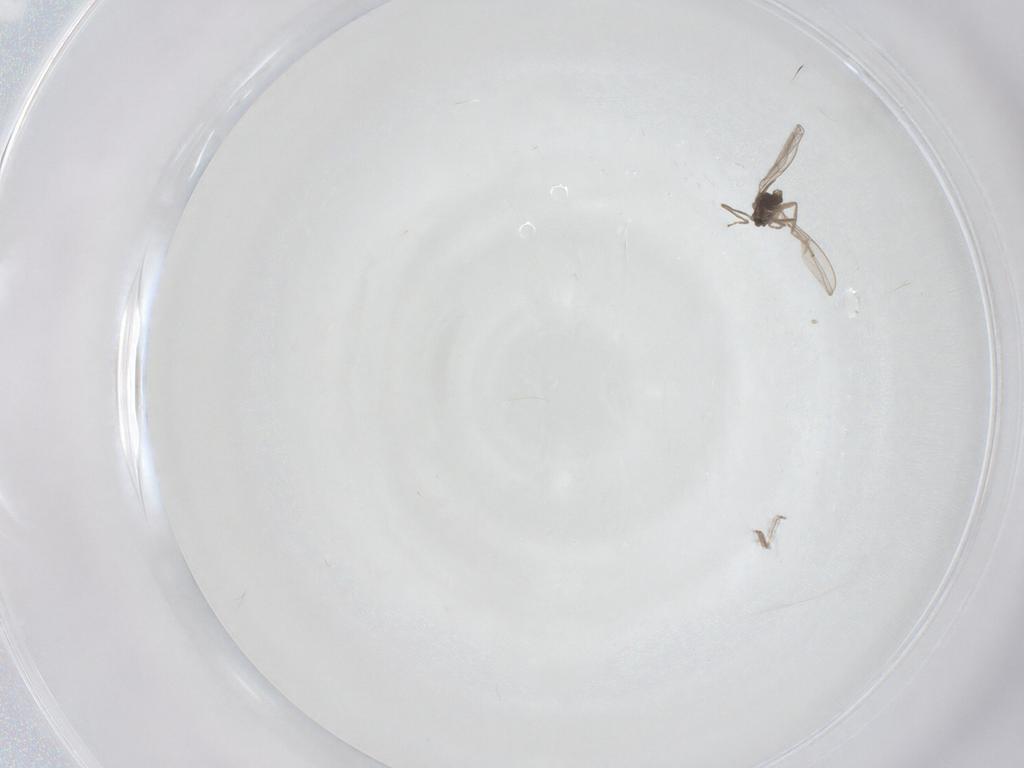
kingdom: Animalia
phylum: Arthropoda
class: Insecta
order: Diptera
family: Cecidomyiidae
